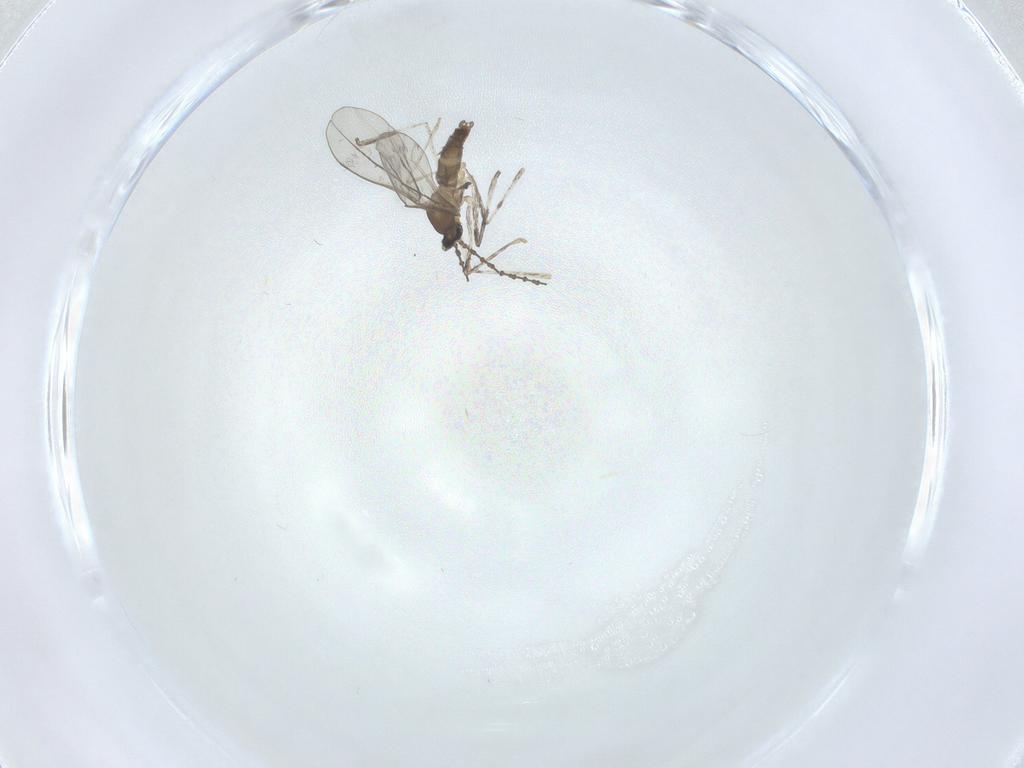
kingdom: Animalia
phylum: Arthropoda
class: Insecta
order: Diptera
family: Cecidomyiidae
